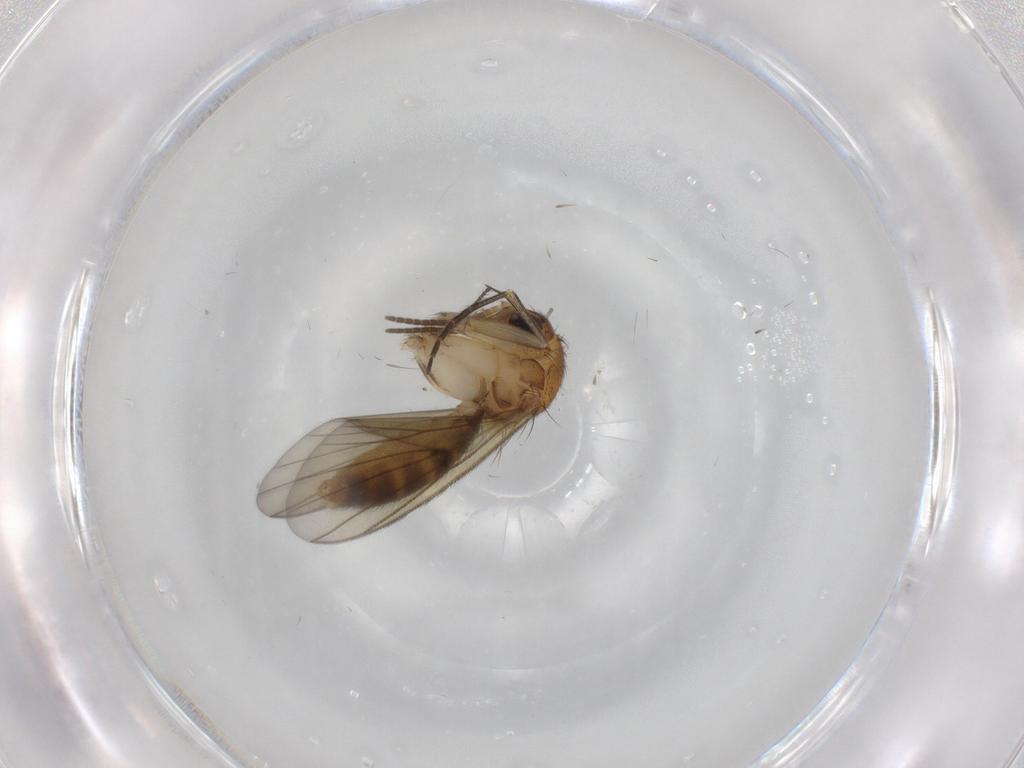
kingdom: Animalia
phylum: Arthropoda
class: Insecta
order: Diptera
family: Mycetophilidae
